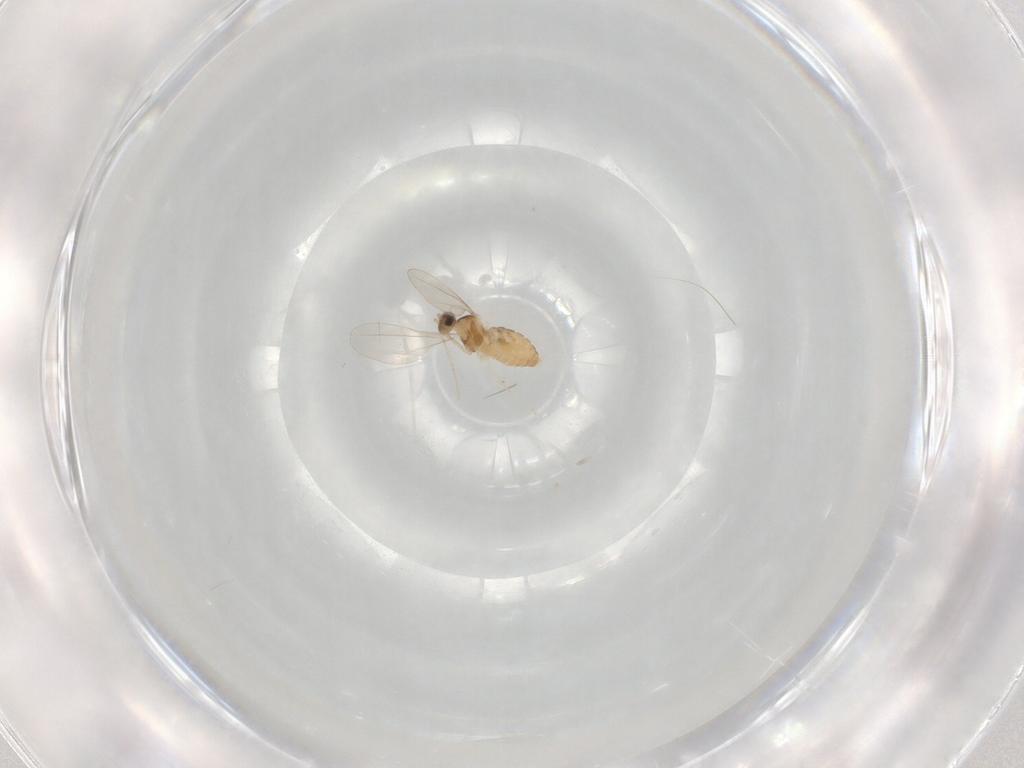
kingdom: Animalia
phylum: Arthropoda
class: Insecta
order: Diptera
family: Cecidomyiidae
